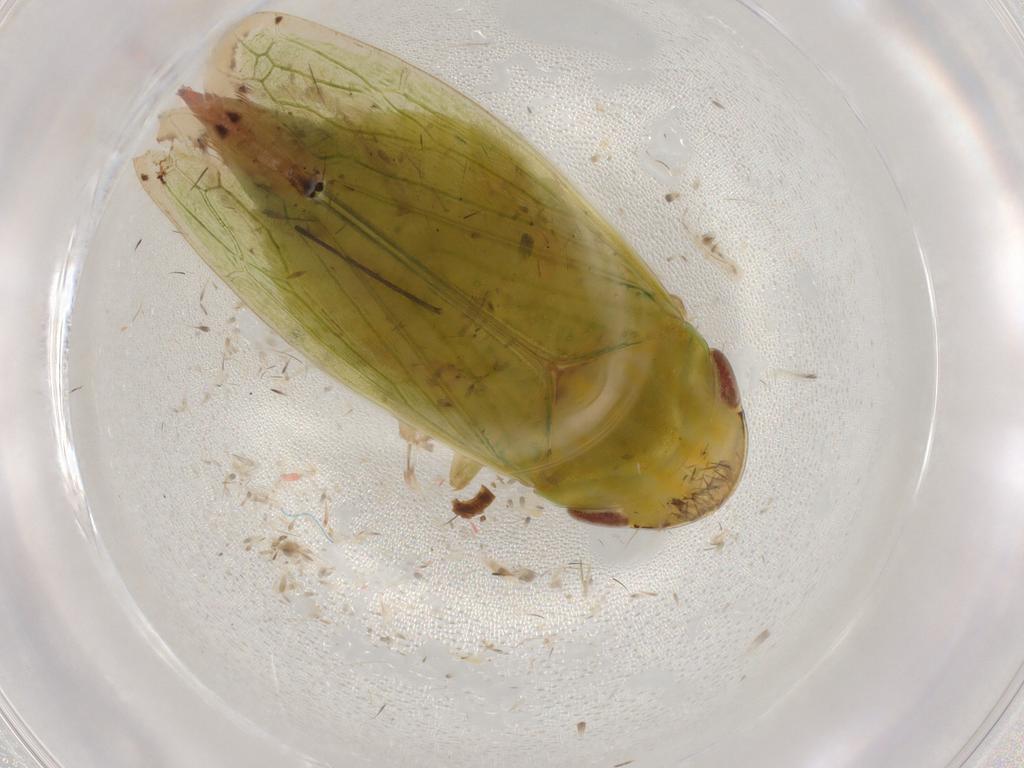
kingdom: Animalia
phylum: Arthropoda
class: Insecta
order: Hemiptera
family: Cicadellidae
